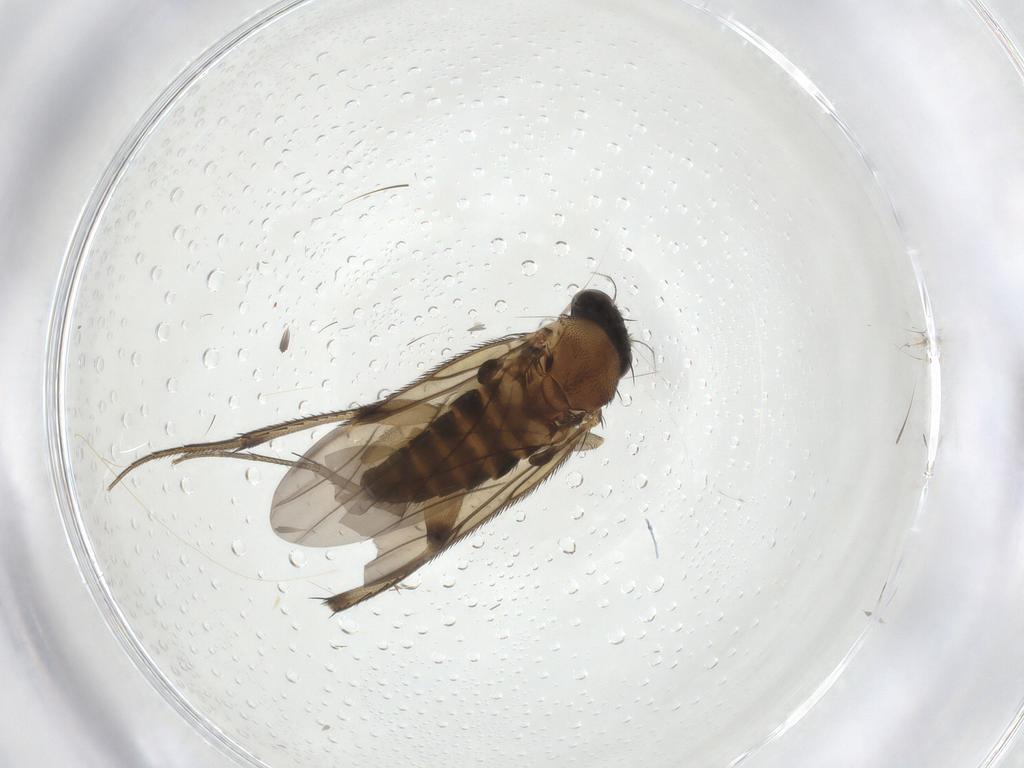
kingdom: Animalia
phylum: Arthropoda
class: Insecta
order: Diptera
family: Phoridae
